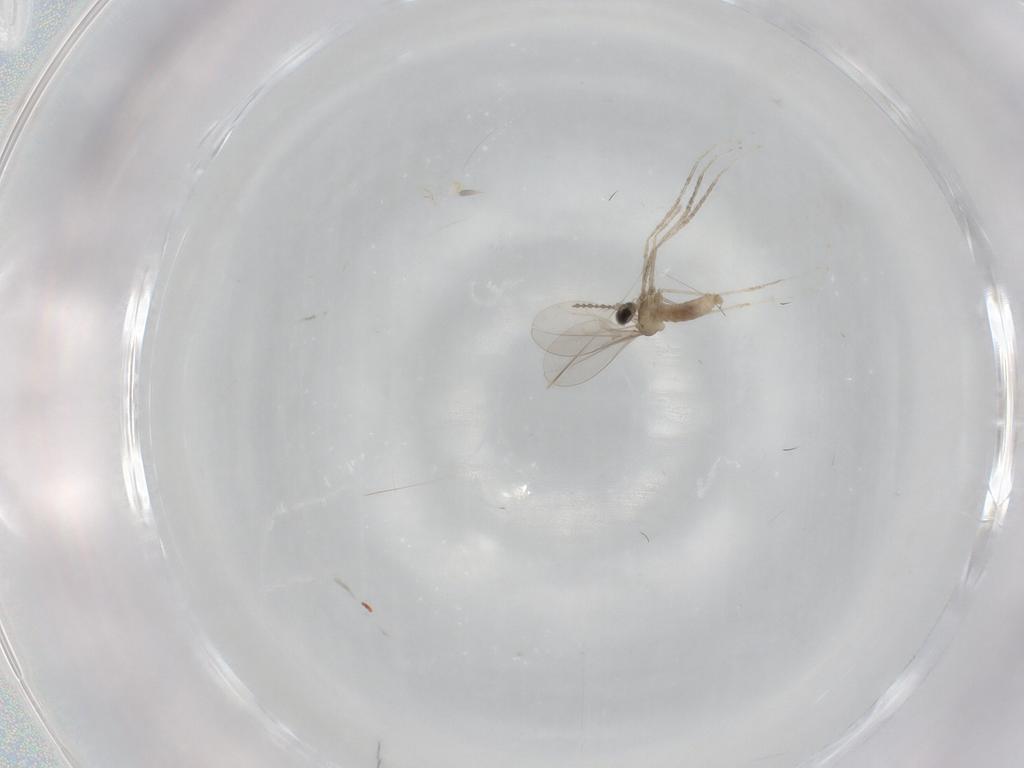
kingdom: Animalia
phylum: Arthropoda
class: Insecta
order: Diptera
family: Cecidomyiidae
